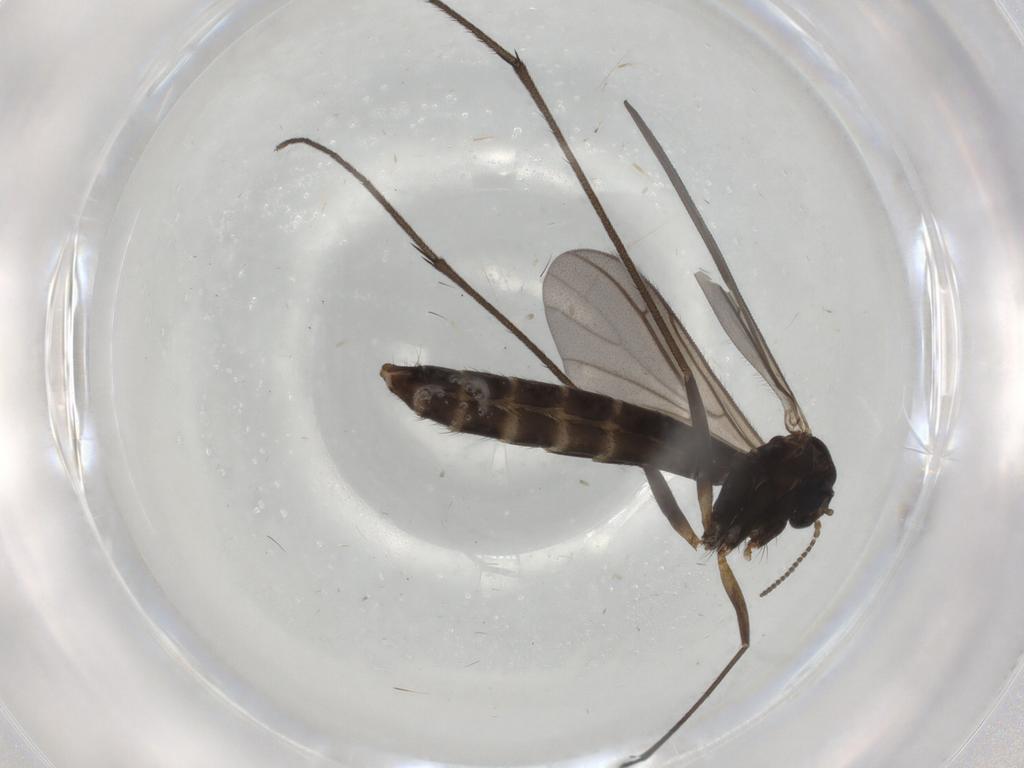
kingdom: Animalia
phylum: Arthropoda
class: Insecta
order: Diptera
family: Ditomyiidae
